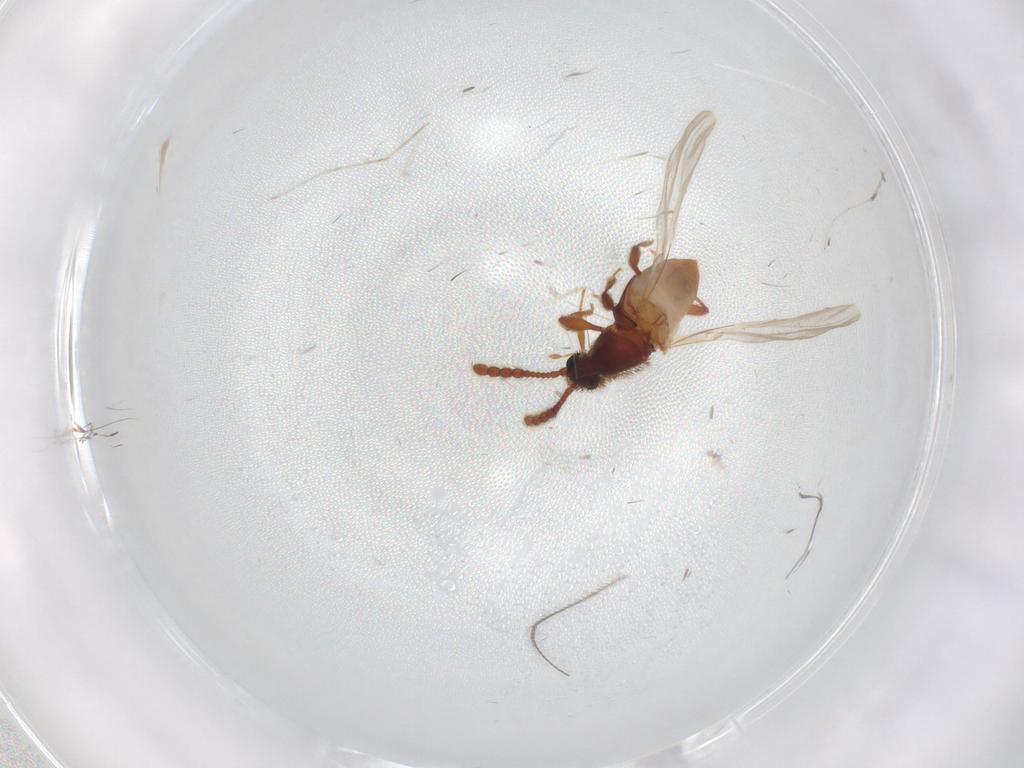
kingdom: Animalia
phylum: Arthropoda
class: Insecta
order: Coleoptera
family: Staphylinidae
